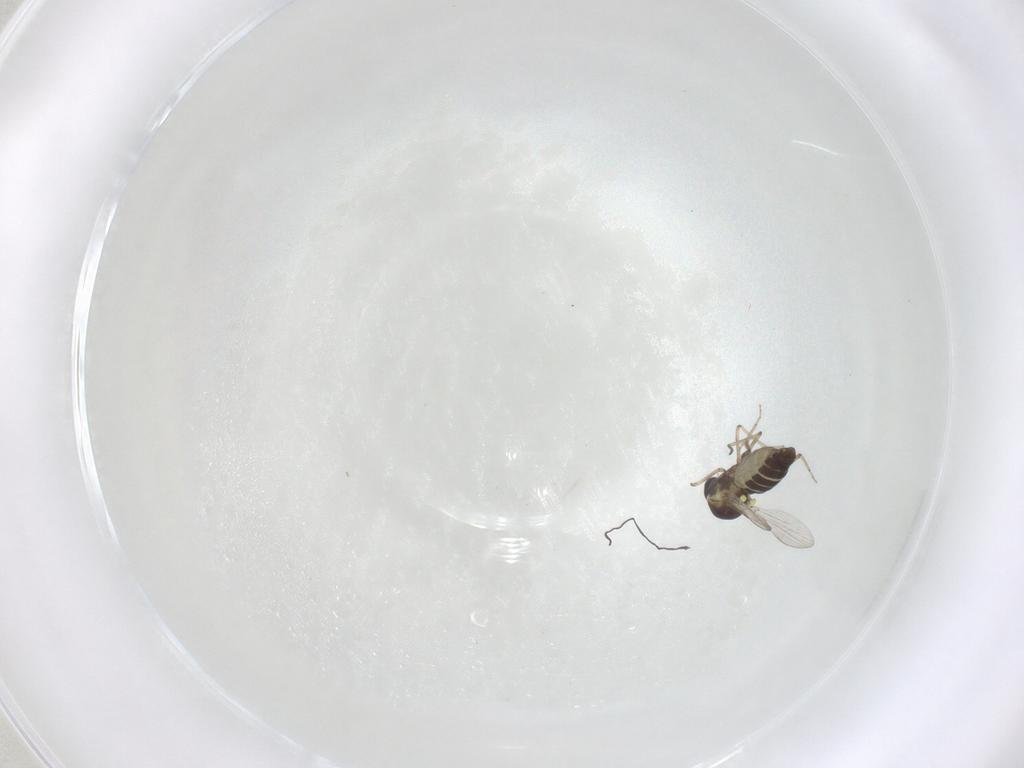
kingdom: Animalia
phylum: Arthropoda
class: Insecta
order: Diptera
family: Ceratopogonidae
